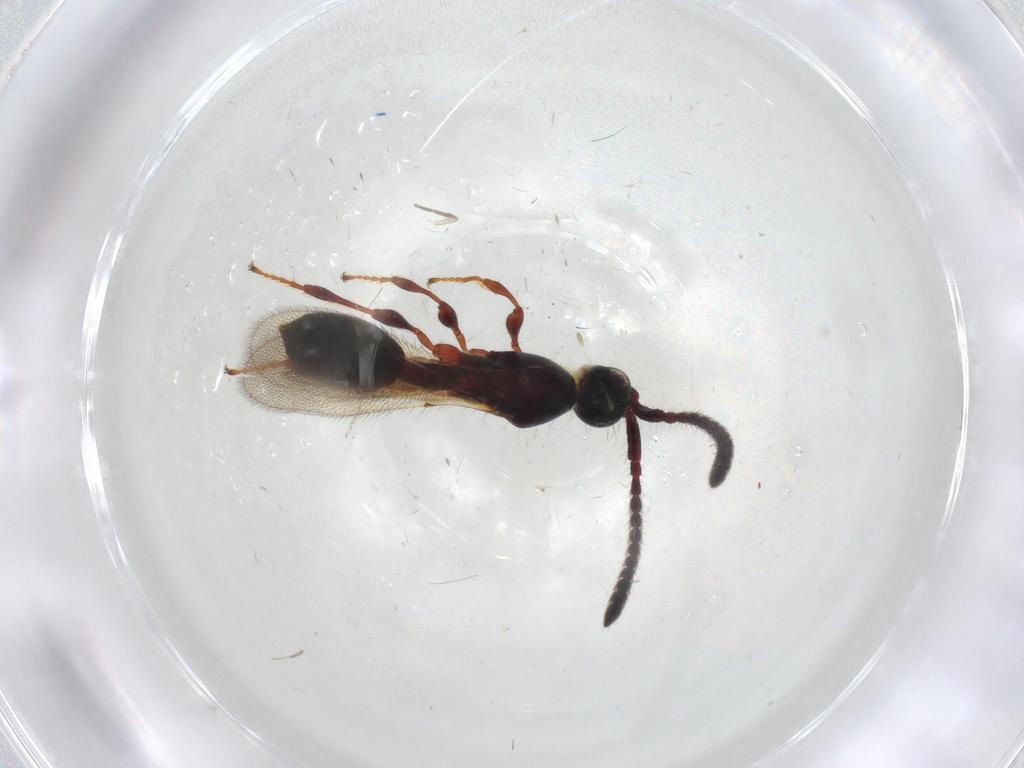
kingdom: Animalia
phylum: Arthropoda
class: Insecta
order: Hymenoptera
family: Diapriidae
